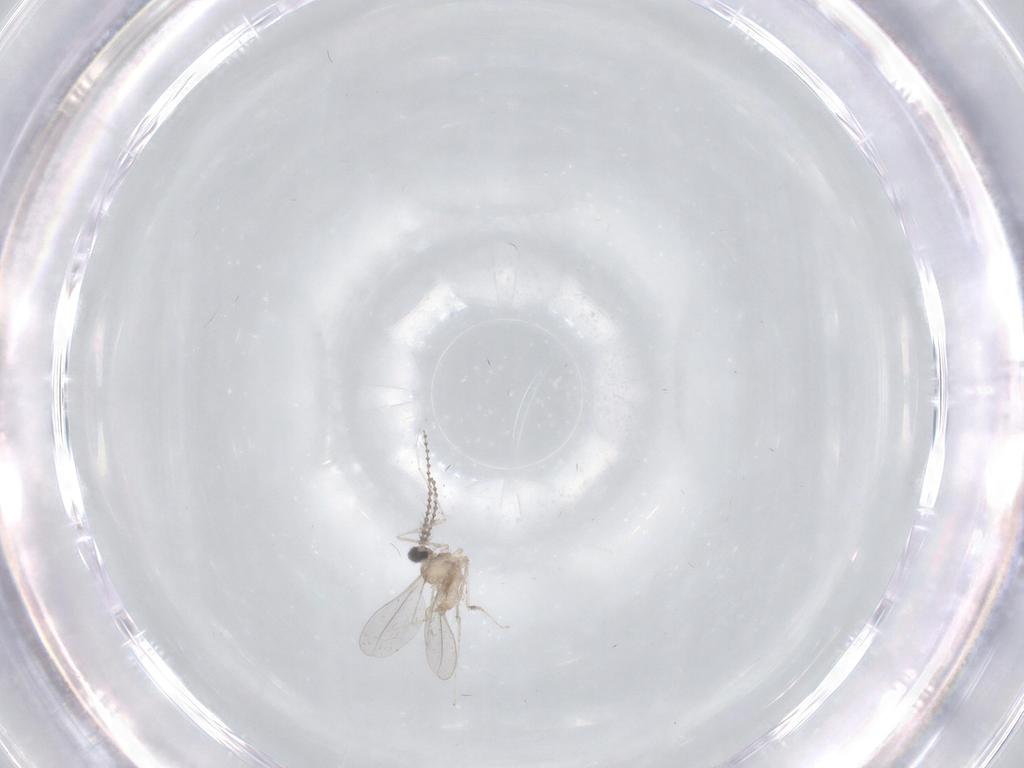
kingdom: Animalia
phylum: Arthropoda
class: Insecta
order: Diptera
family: Cecidomyiidae
